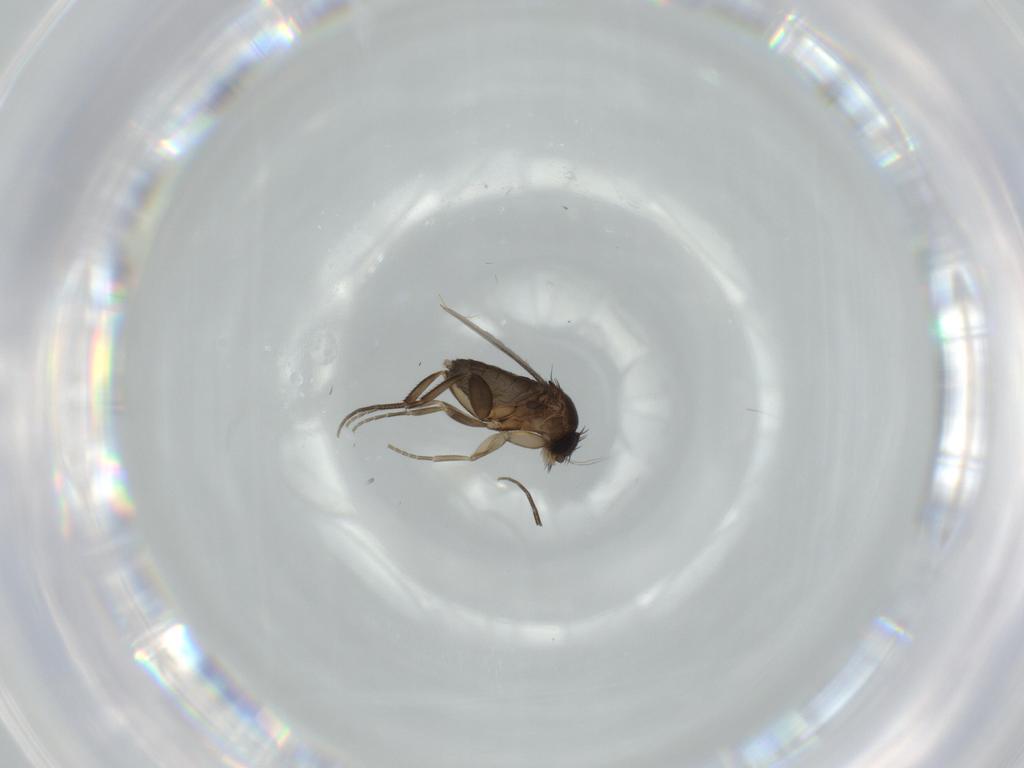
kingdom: Animalia
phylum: Arthropoda
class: Insecta
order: Diptera
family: Phoridae
